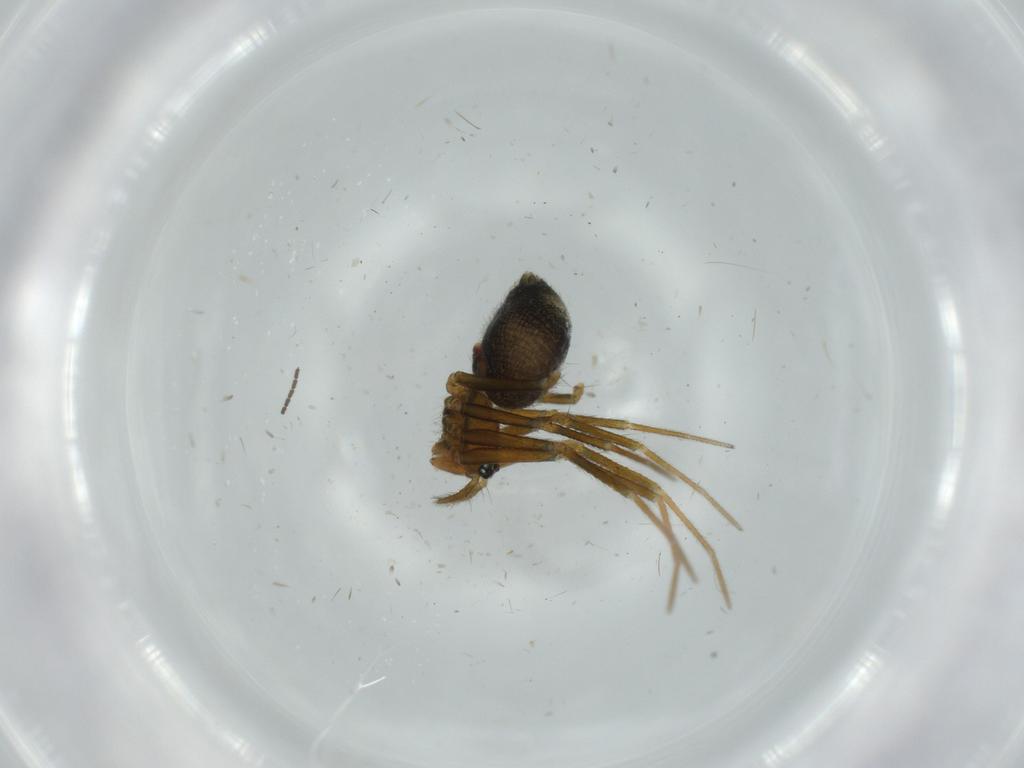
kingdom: Animalia
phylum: Arthropoda
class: Arachnida
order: Araneae
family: Linyphiidae
